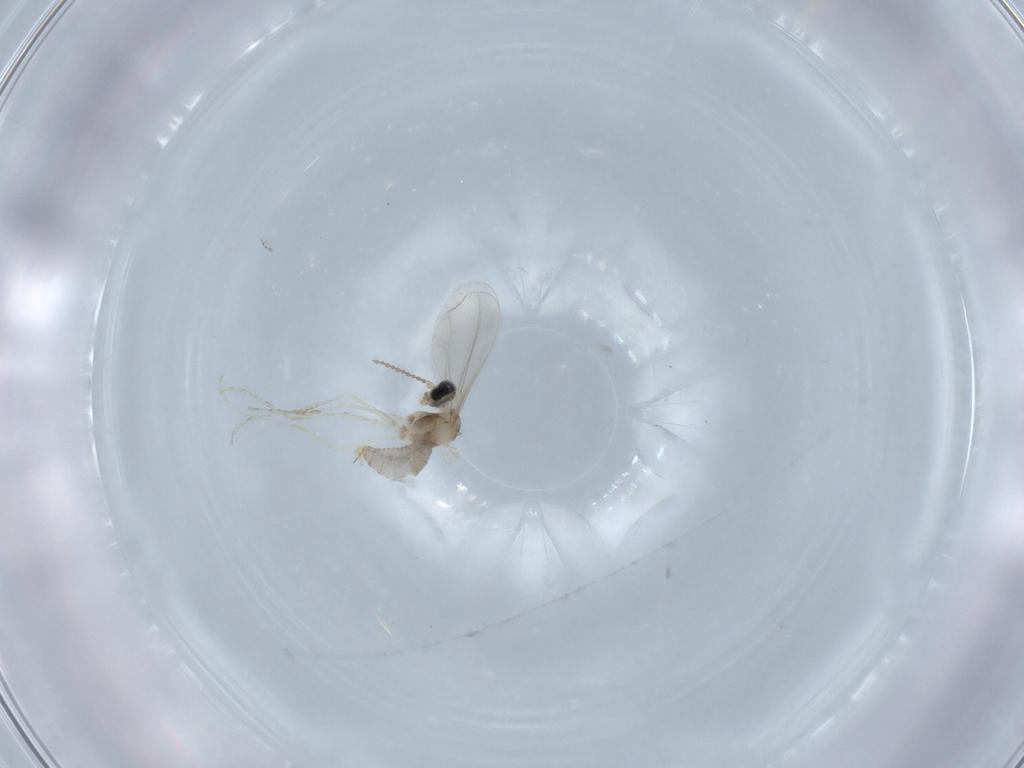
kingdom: Animalia
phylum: Arthropoda
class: Insecta
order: Diptera
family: Cecidomyiidae
